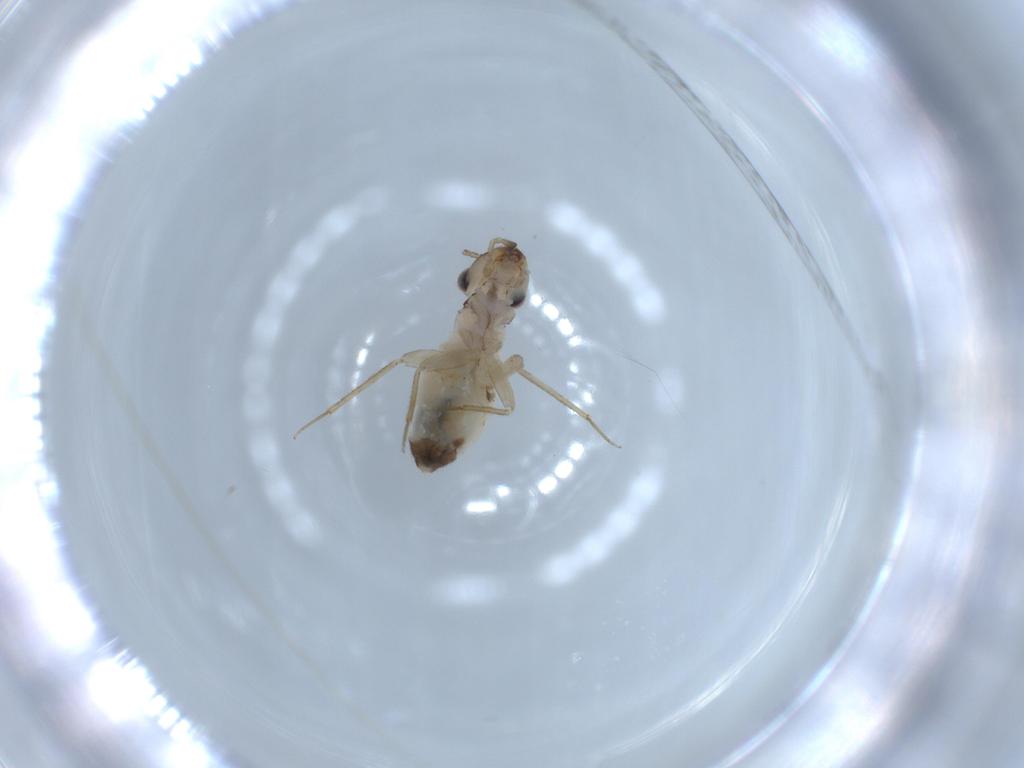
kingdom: Animalia
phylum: Arthropoda
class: Insecta
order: Psocodea
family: Lepidopsocidae
